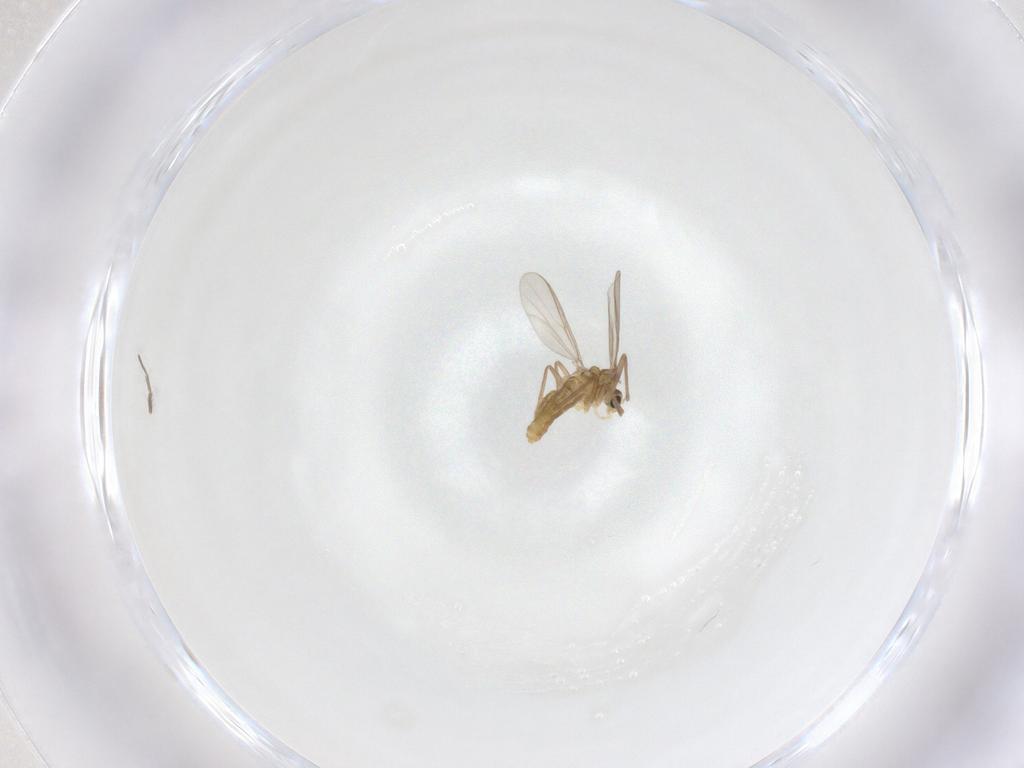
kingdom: Animalia
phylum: Arthropoda
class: Insecta
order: Diptera
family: Chironomidae
